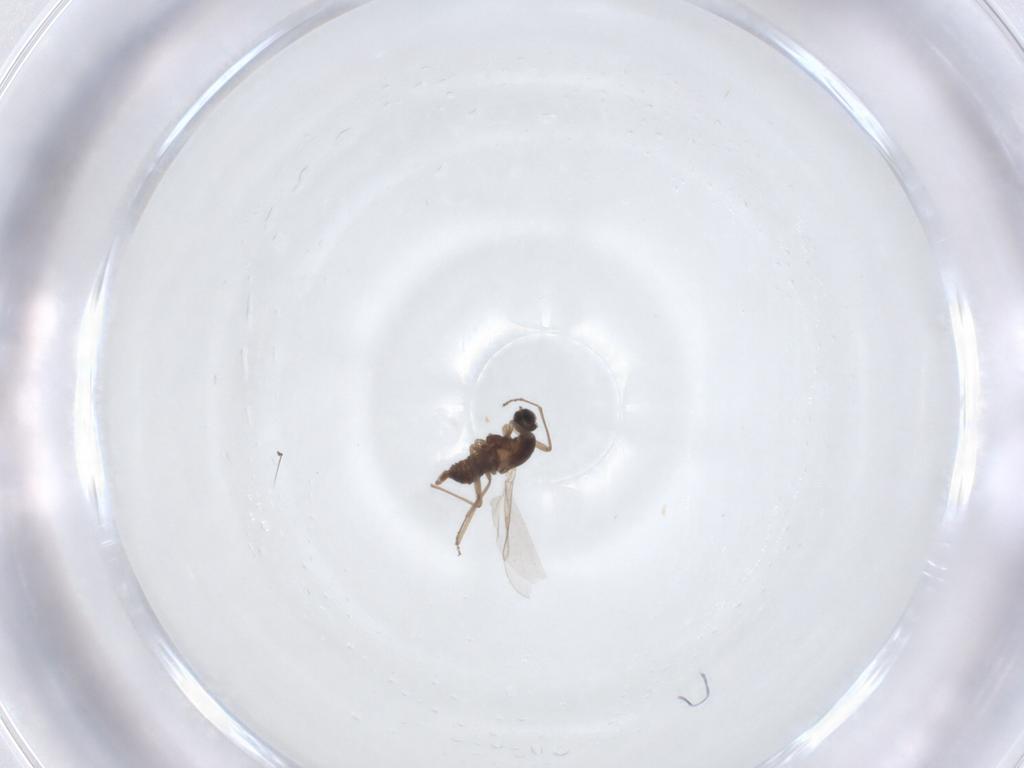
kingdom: Animalia
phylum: Arthropoda
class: Insecta
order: Diptera
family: Cecidomyiidae
